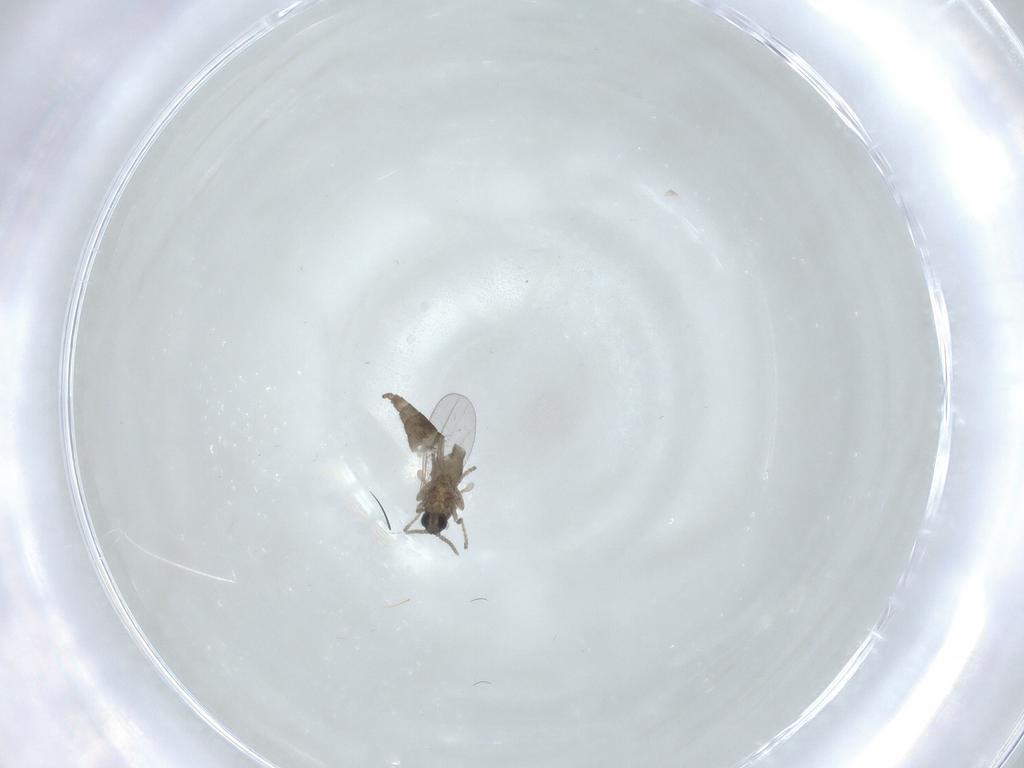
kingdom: Animalia
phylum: Arthropoda
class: Insecta
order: Diptera
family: Cecidomyiidae
